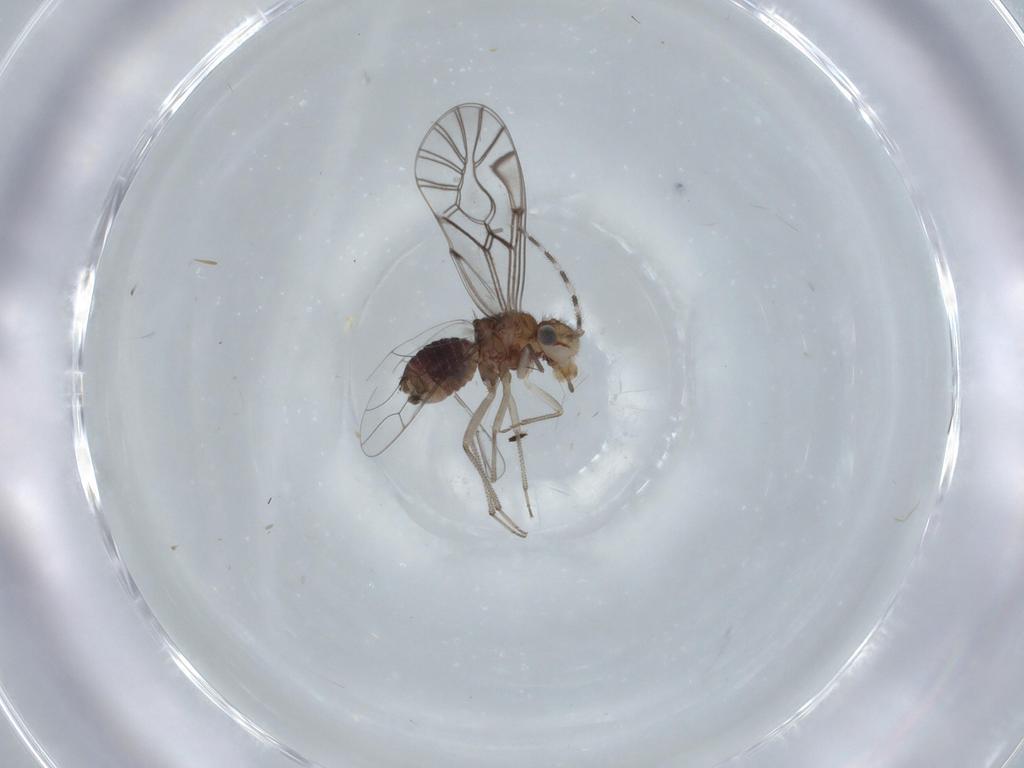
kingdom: Animalia
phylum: Arthropoda
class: Insecta
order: Psocodea
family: Amphipsocidae
